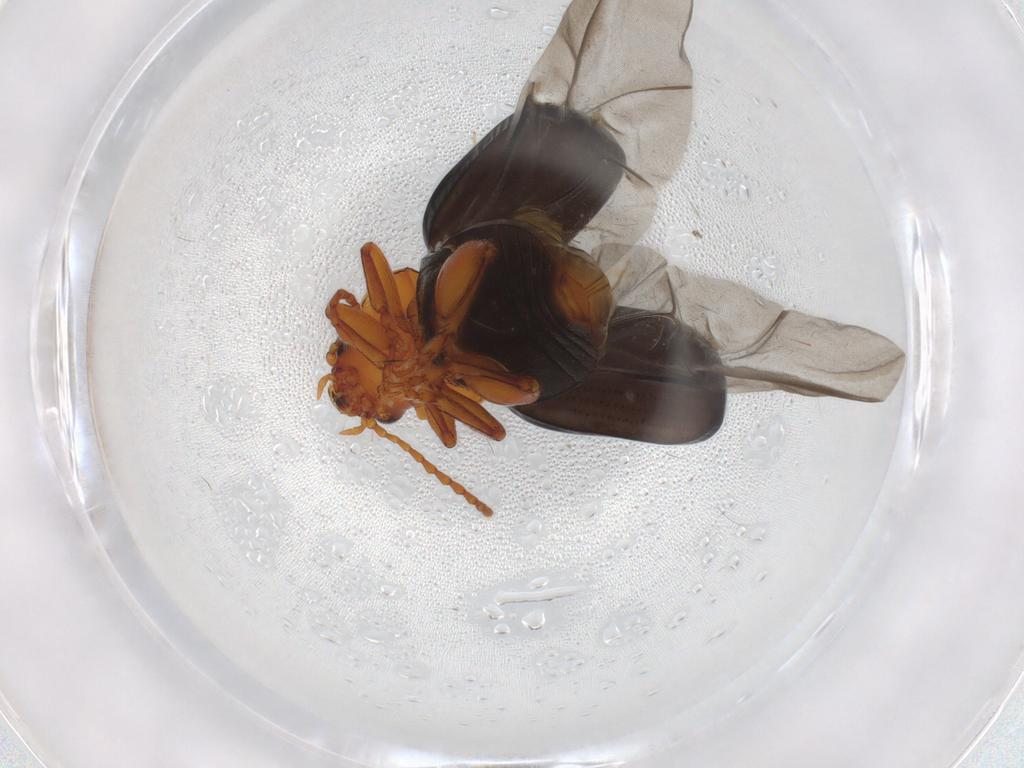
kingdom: Animalia
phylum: Arthropoda
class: Insecta
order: Coleoptera
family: Chrysomelidae
